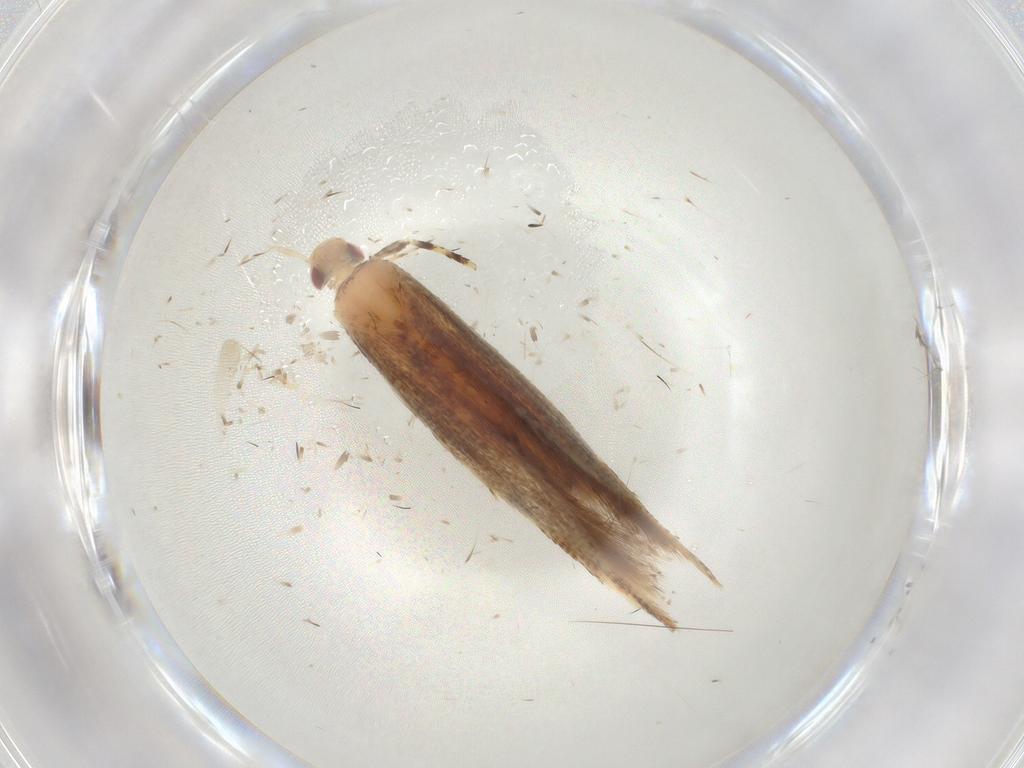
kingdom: Animalia
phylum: Arthropoda
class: Insecta
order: Lepidoptera
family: Cosmopterigidae
